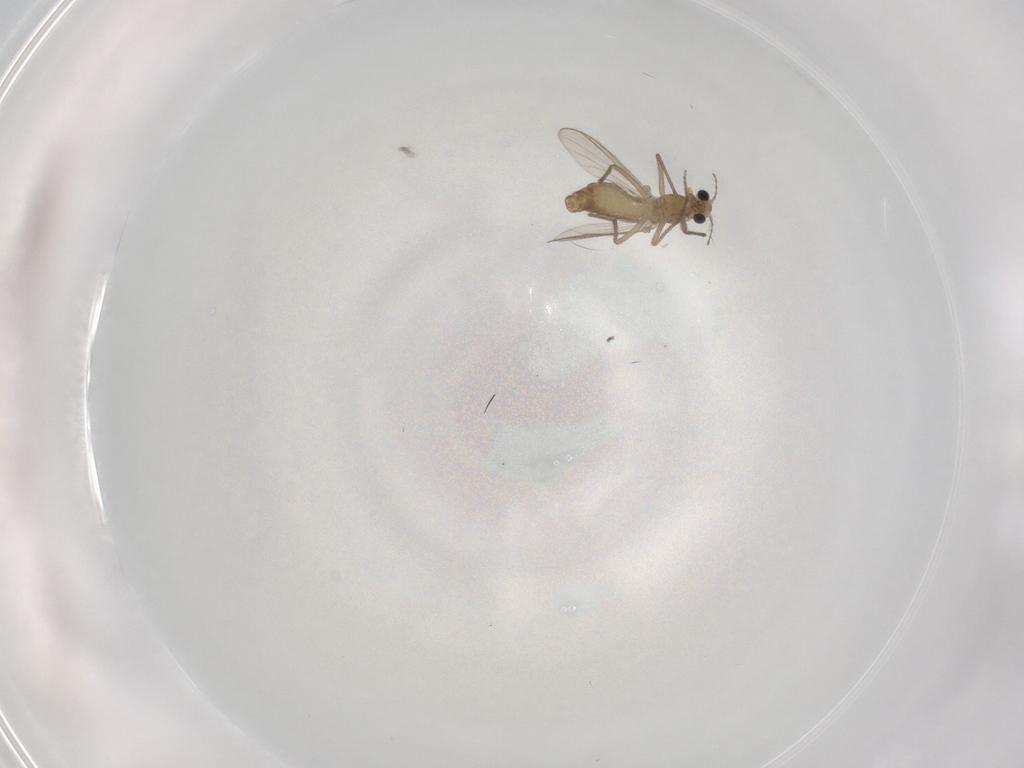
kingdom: Animalia
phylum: Arthropoda
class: Insecta
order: Diptera
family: Chironomidae
